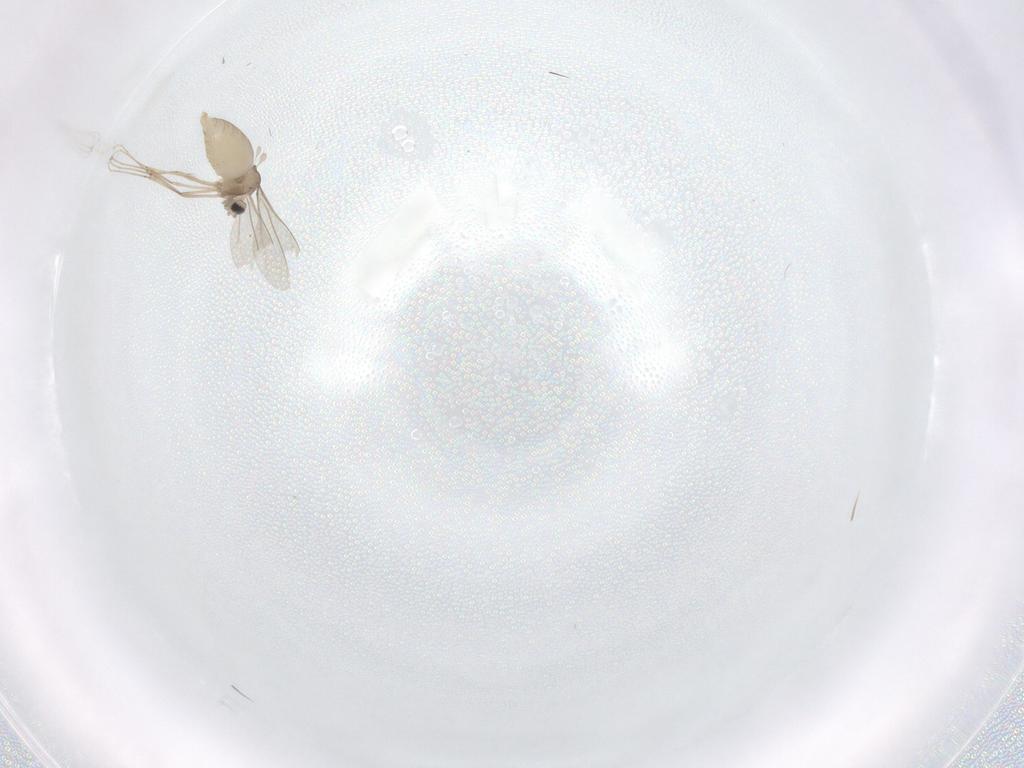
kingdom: Animalia
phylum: Arthropoda
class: Insecta
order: Diptera
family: Cecidomyiidae
